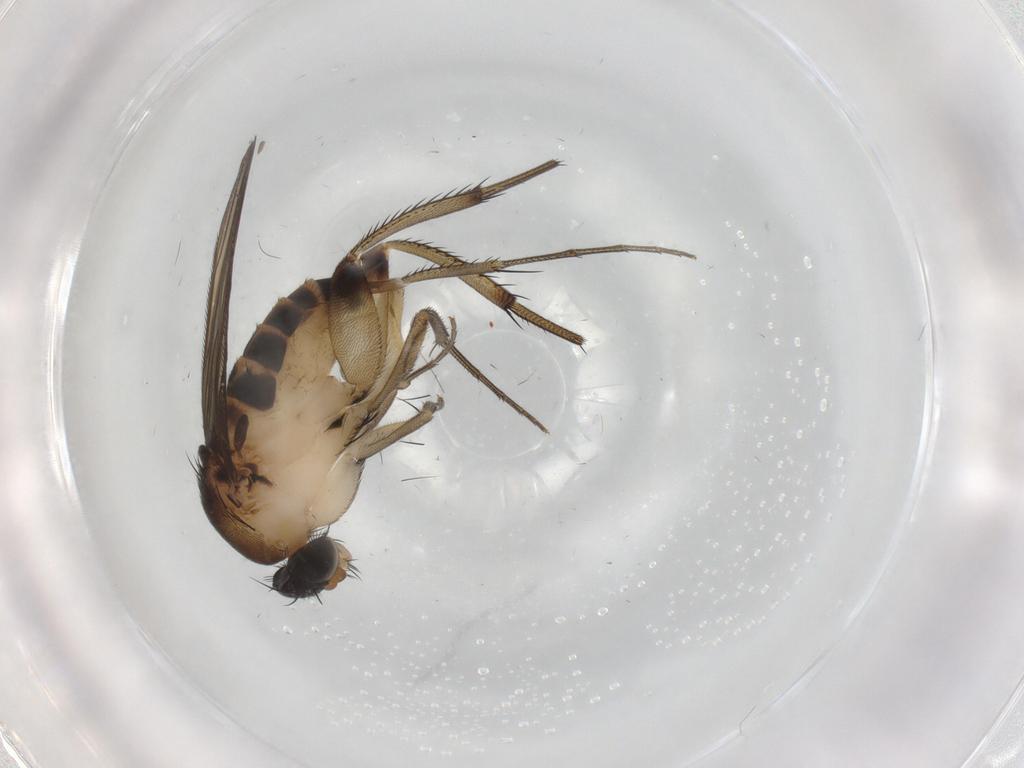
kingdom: Animalia
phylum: Arthropoda
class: Insecta
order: Diptera
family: Phoridae
